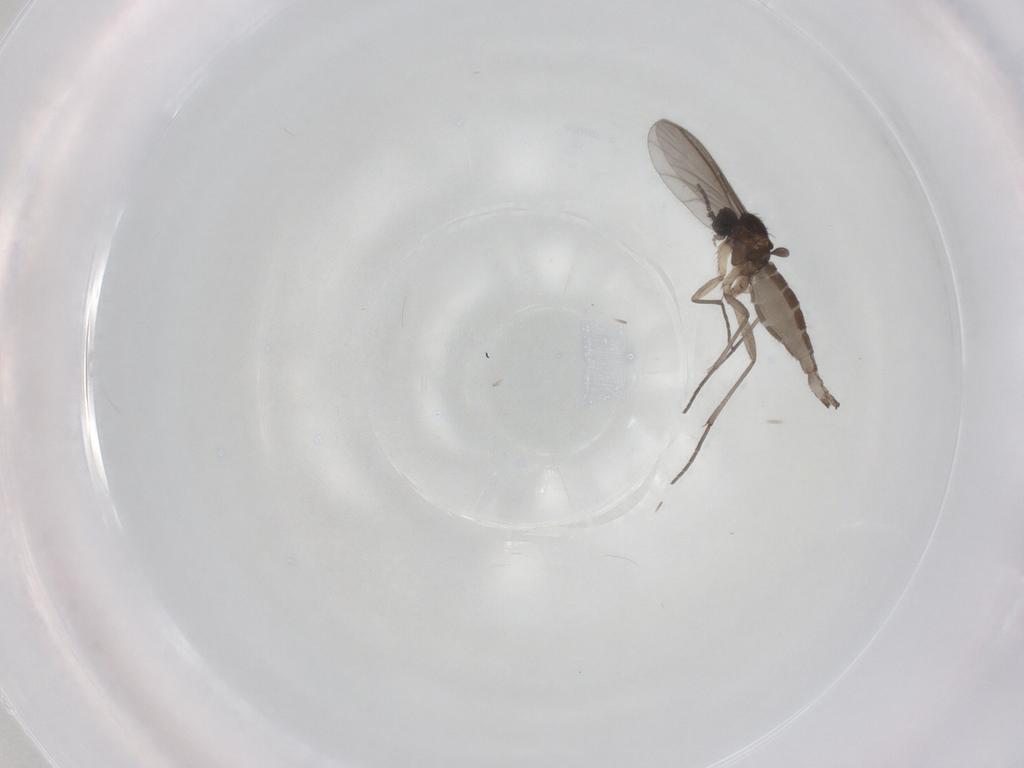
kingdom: Animalia
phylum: Arthropoda
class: Insecta
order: Diptera
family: Sciaridae
